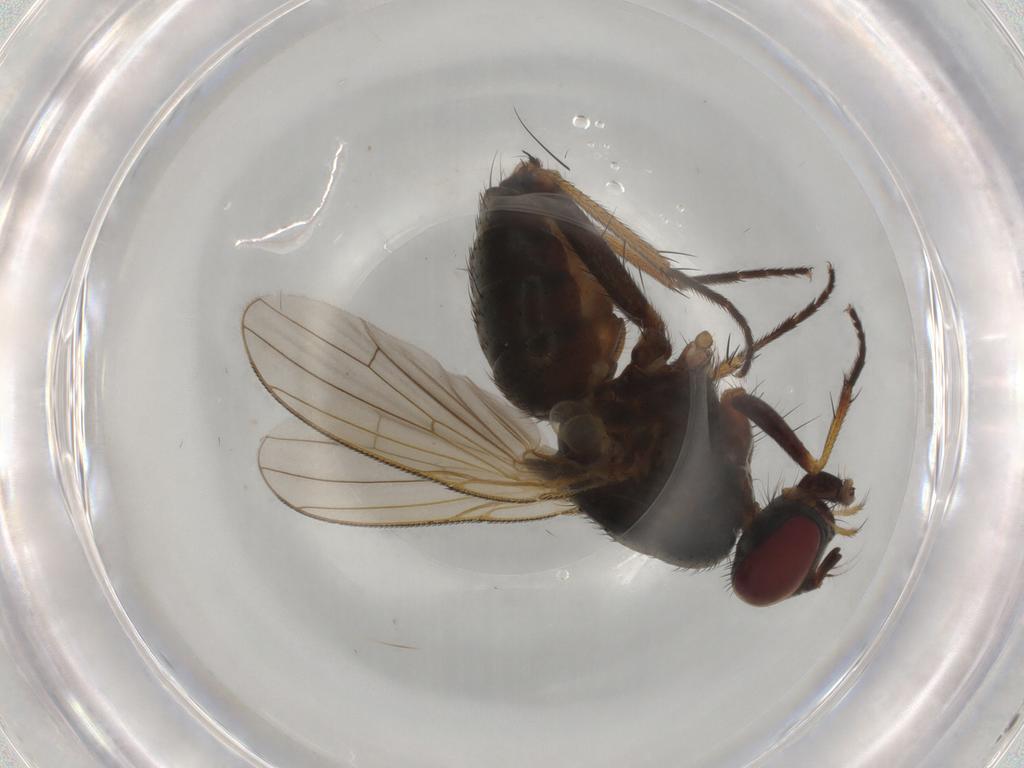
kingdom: Animalia
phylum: Arthropoda
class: Insecta
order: Diptera
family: Muscidae
